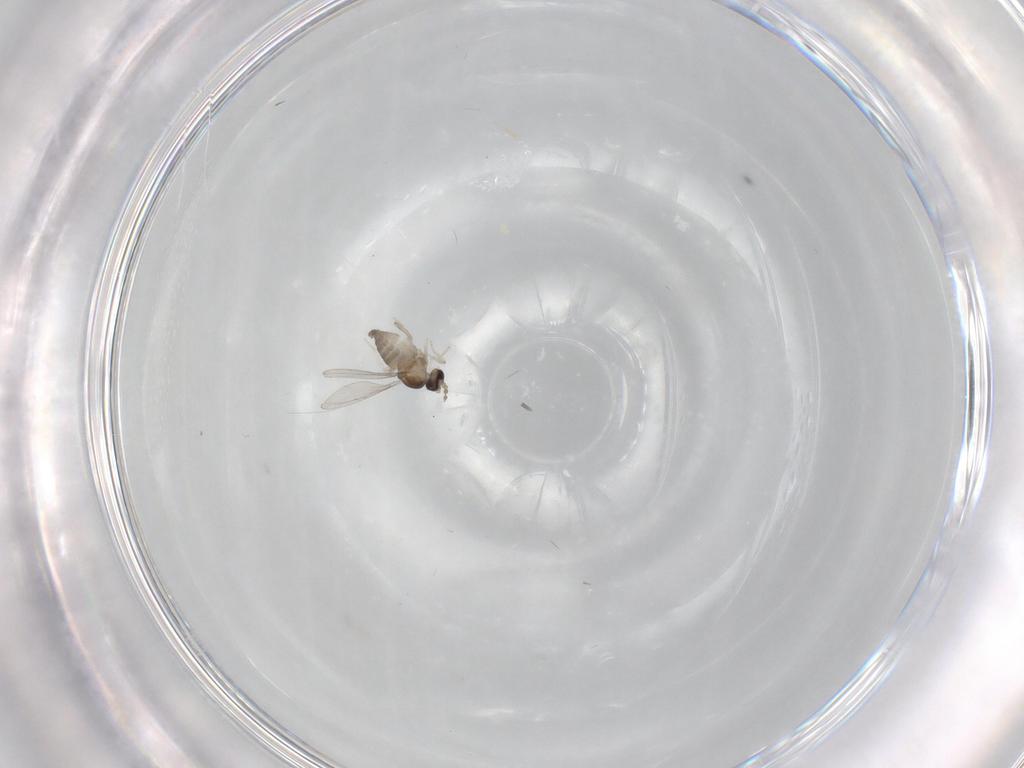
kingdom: Animalia
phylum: Arthropoda
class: Insecta
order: Diptera
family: Cecidomyiidae
